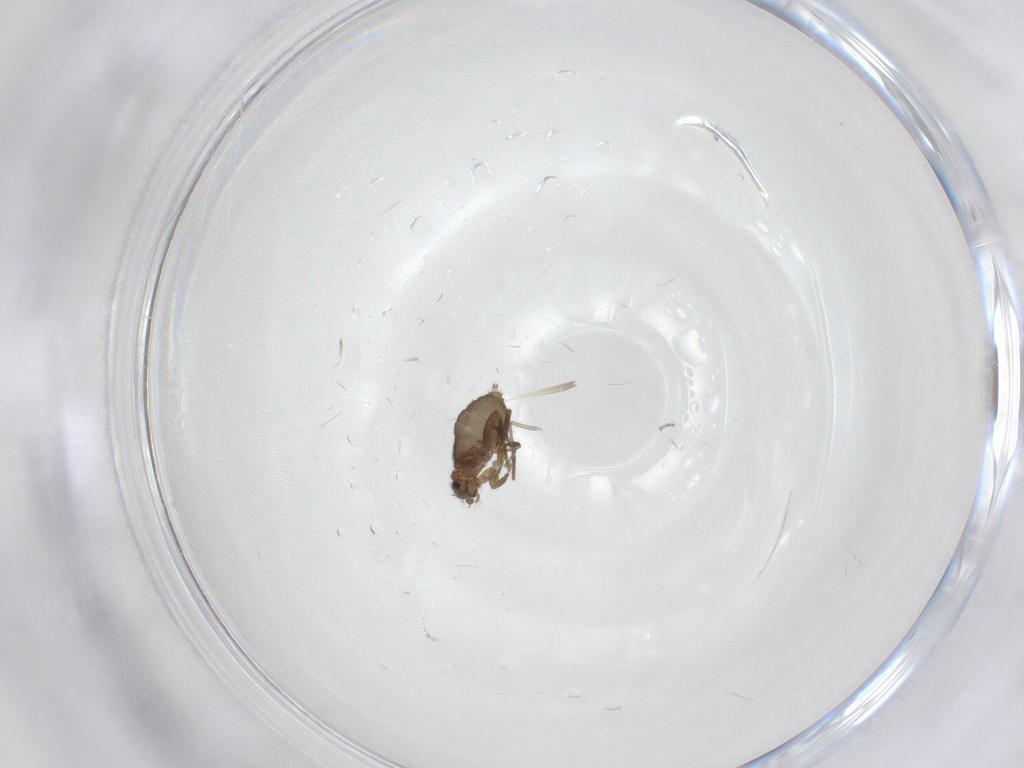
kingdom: Animalia
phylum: Arthropoda
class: Insecta
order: Diptera
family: Phoridae
